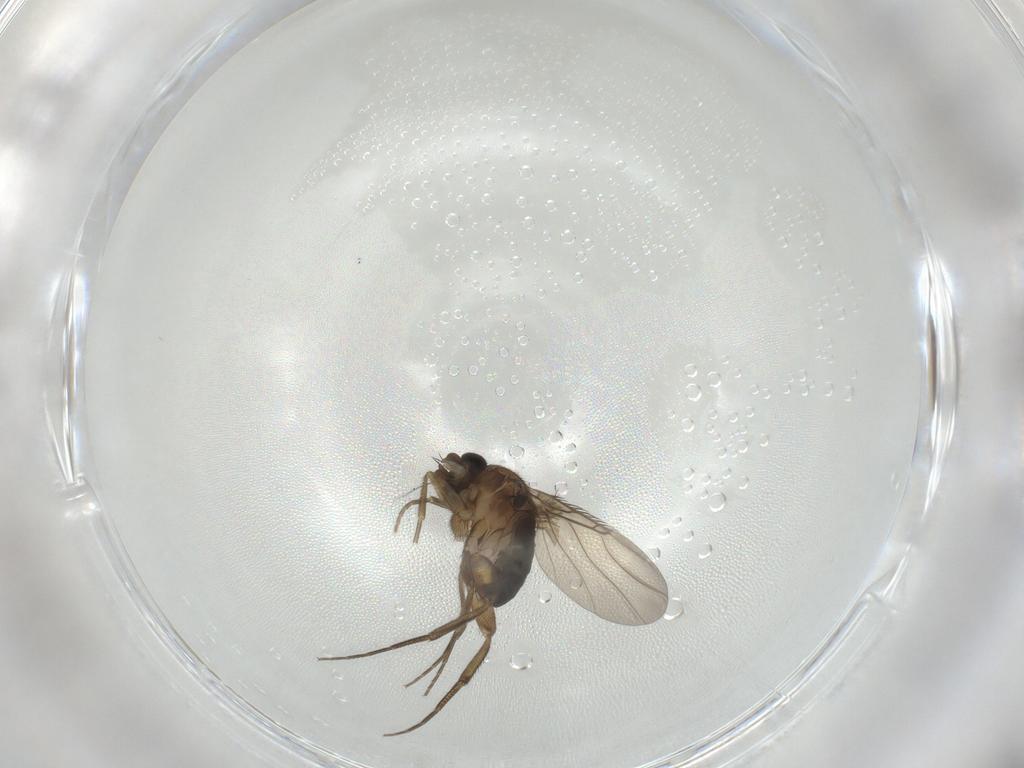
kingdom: Animalia
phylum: Arthropoda
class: Insecta
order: Diptera
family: Phoridae
